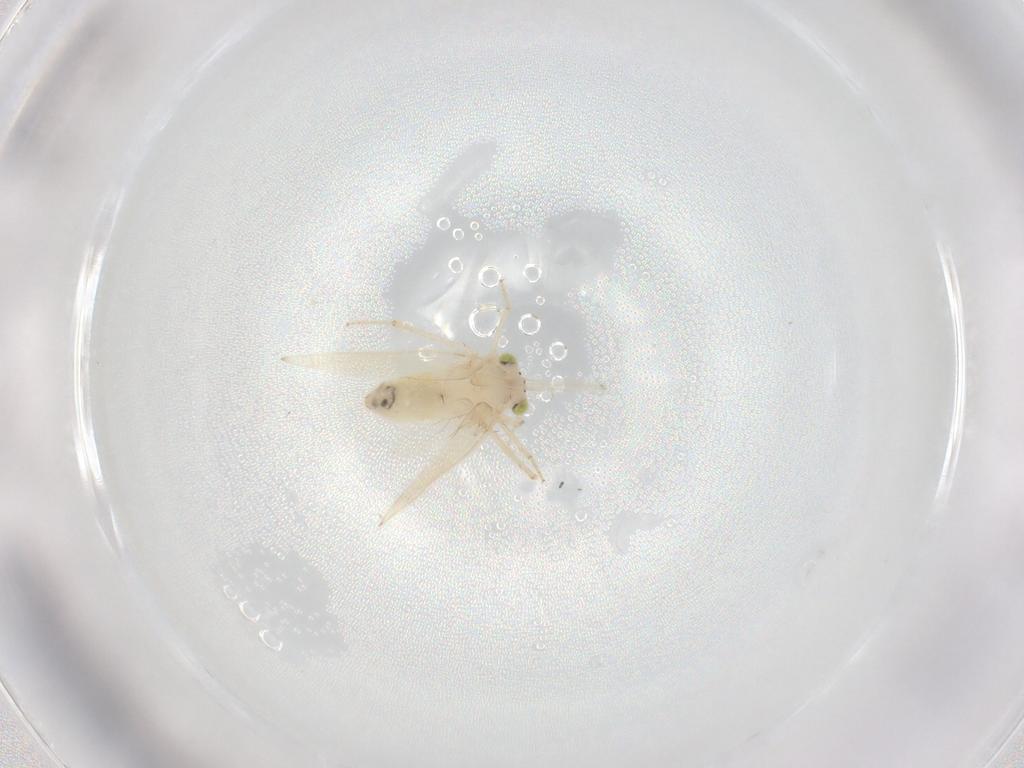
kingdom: Animalia
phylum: Arthropoda
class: Insecta
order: Psocodea
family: Lepidopsocidae
